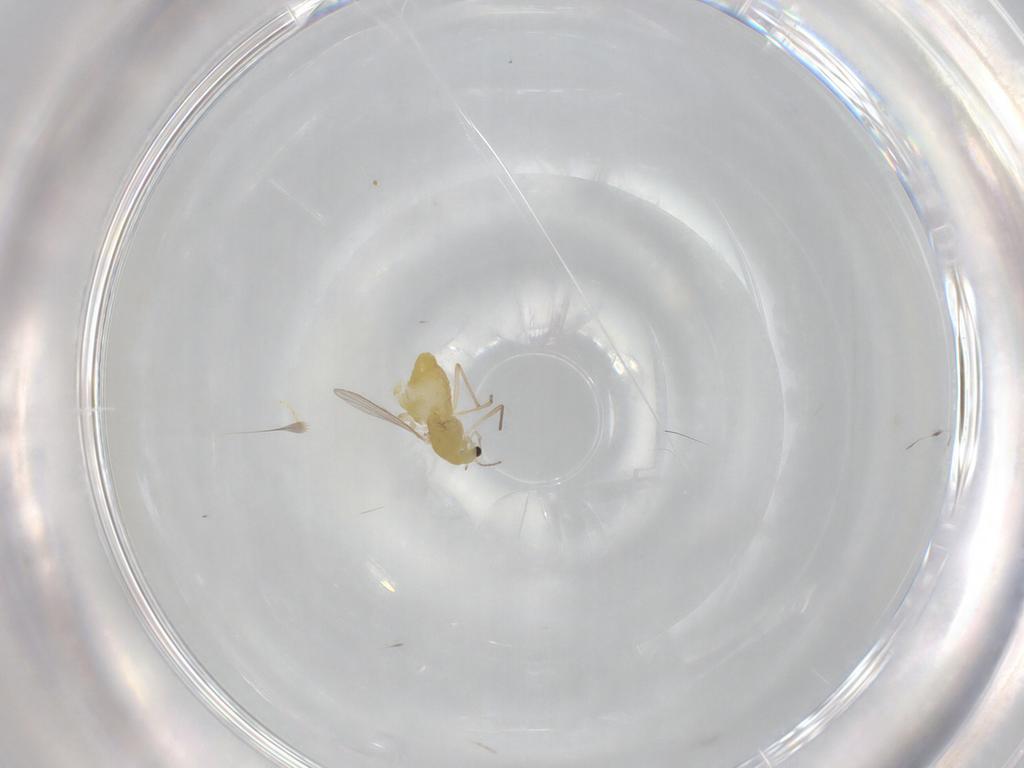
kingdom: Animalia
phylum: Arthropoda
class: Insecta
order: Diptera
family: Chironomidae
